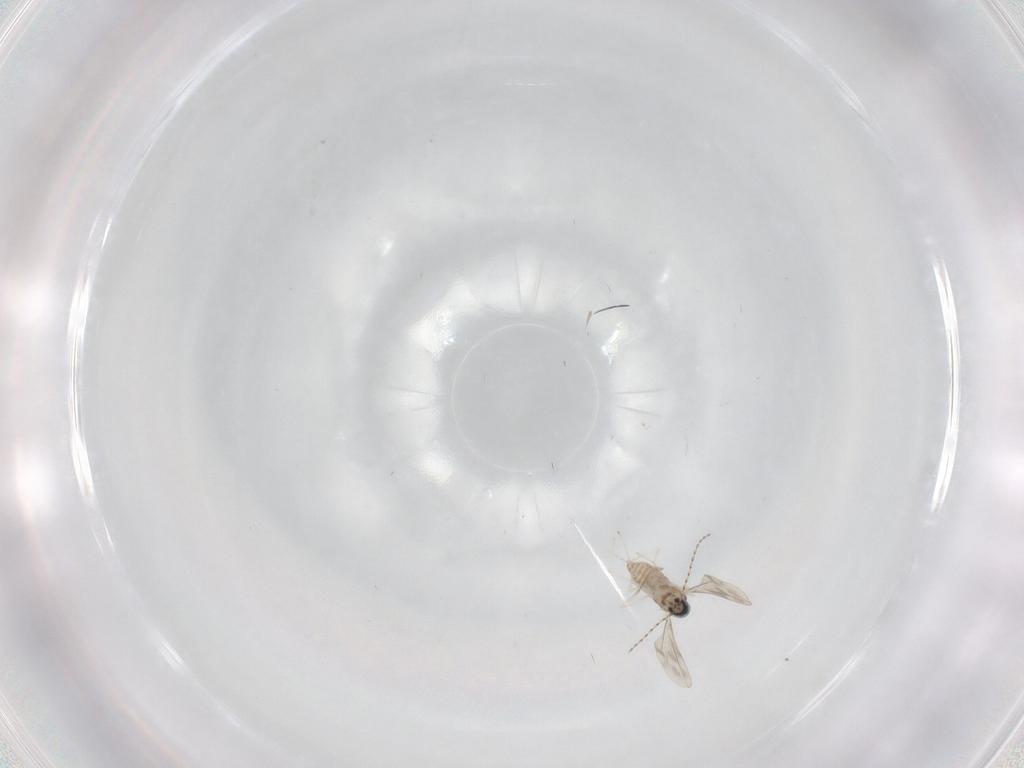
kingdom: Animalia
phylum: Arthropoda
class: Insecta
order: Diptera
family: Cecidomyiidae
